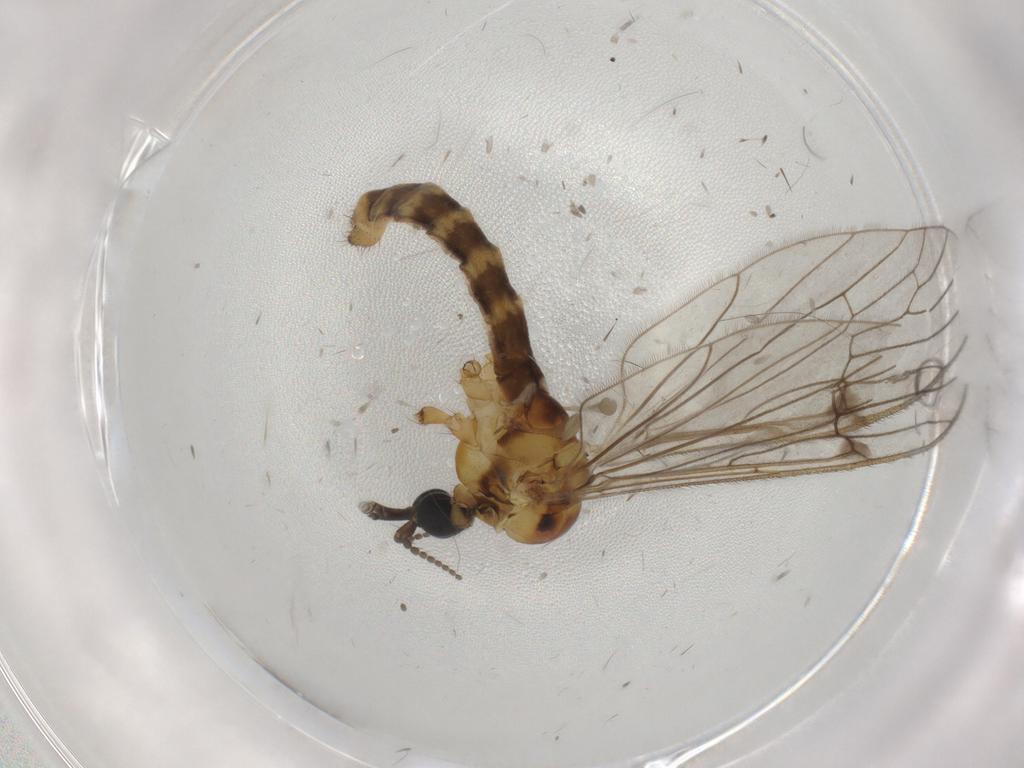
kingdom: Animalia
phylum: Arthropoda
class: Insecta
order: Diptera
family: Limoniidae
